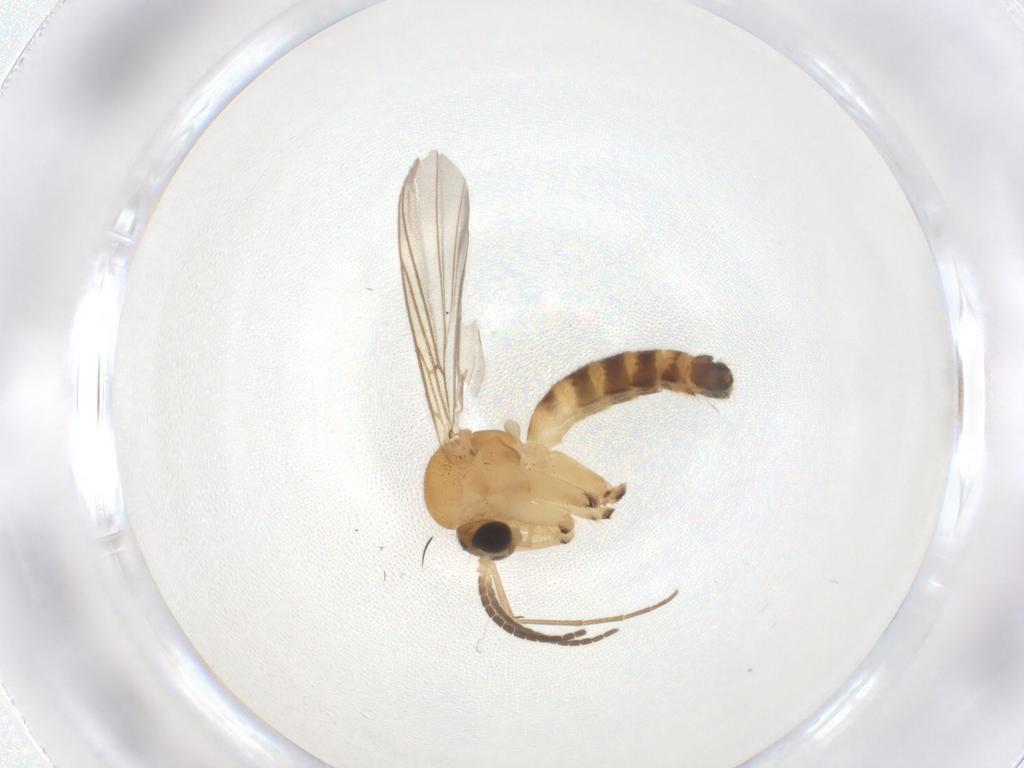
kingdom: Animalia
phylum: Arthropoda
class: Insecta
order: Diptera
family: Mycetophilidae
